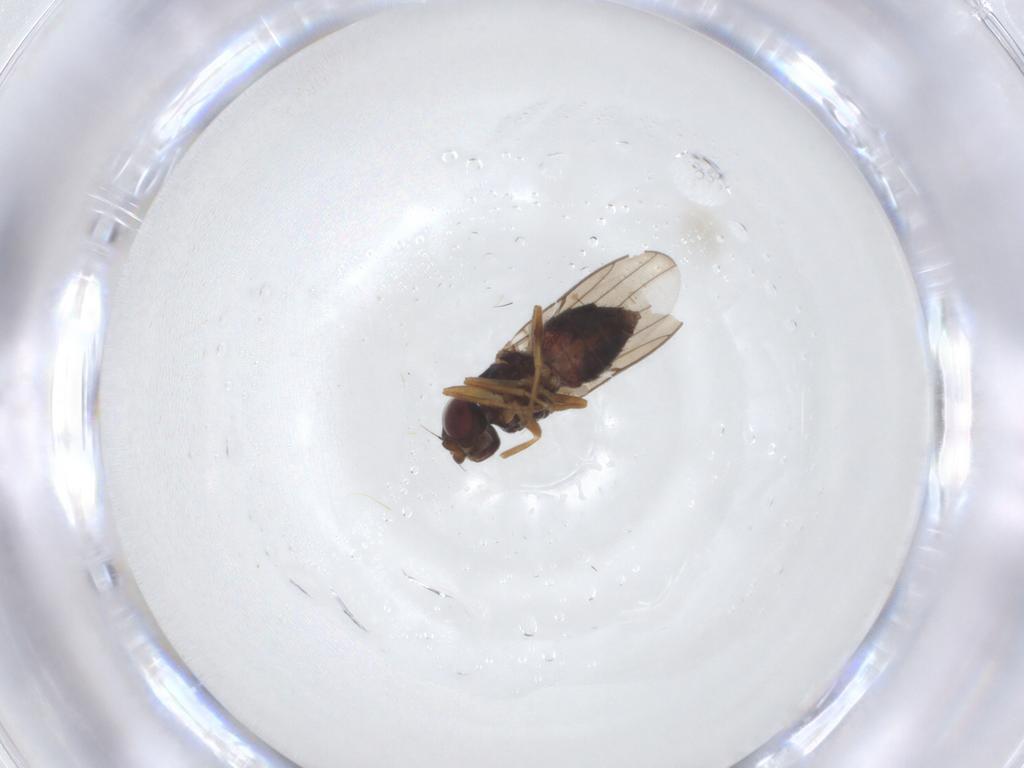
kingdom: Animalia
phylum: Arthropoda
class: Insecta
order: Diptera
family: Chloropidae
